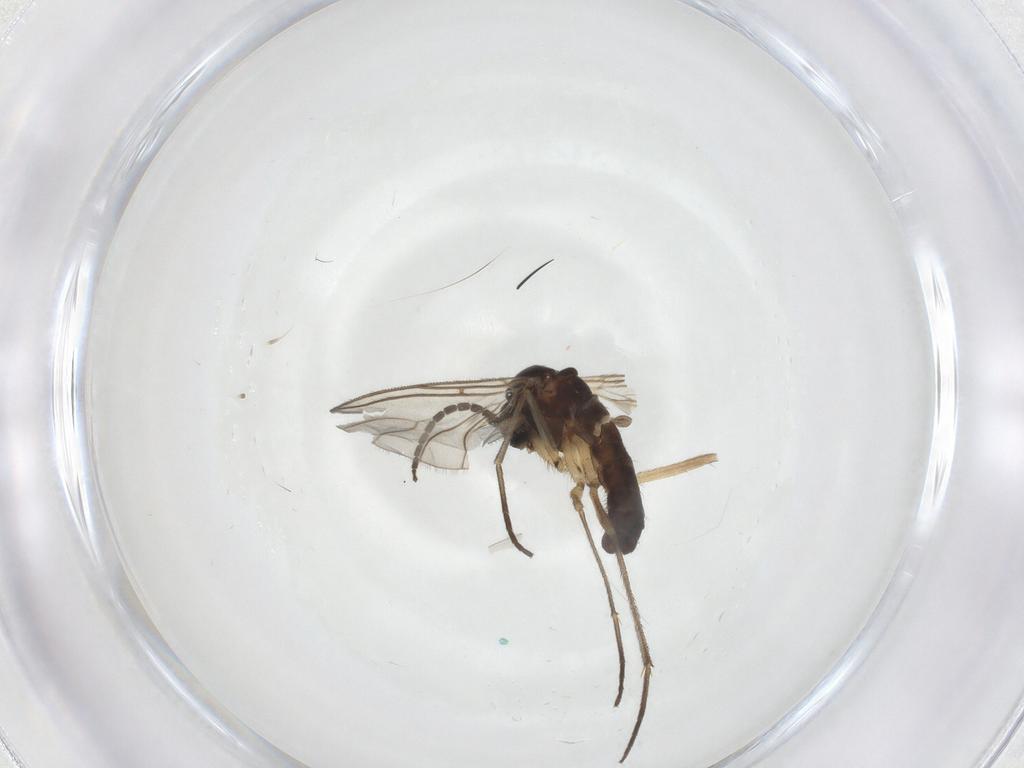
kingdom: Animalia
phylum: Arthropoda
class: Insecta
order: Diptera
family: Sciaridae
